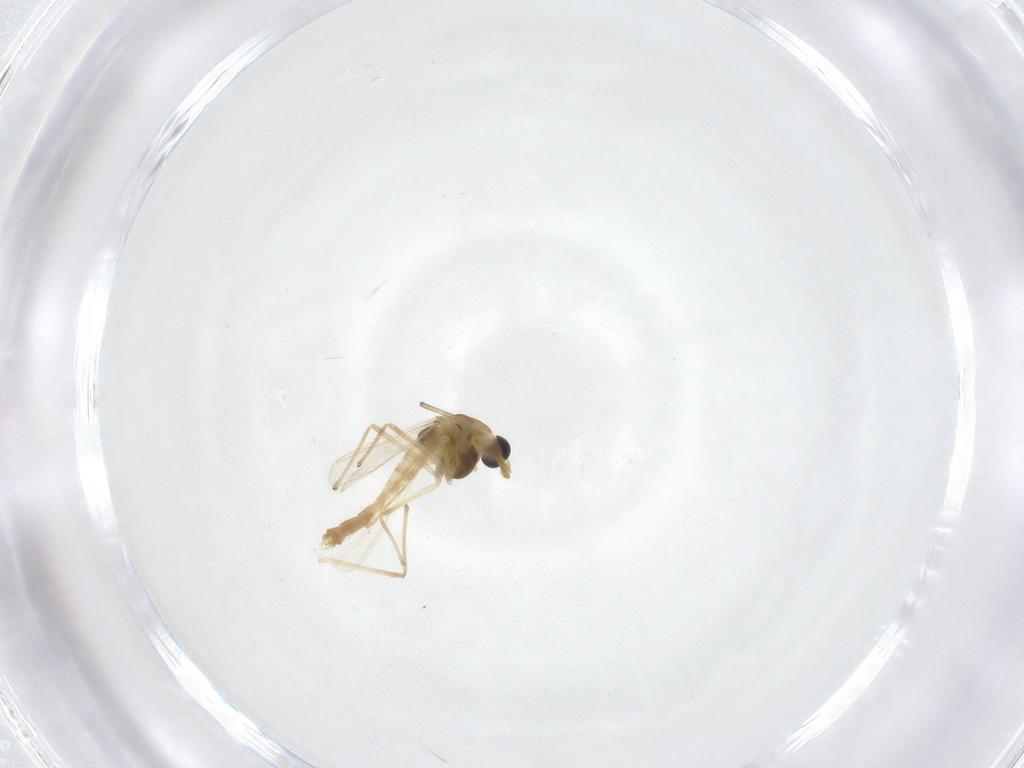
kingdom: Animalia
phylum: Arthropoda
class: Insecta
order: Diptera
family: Chironomidae
